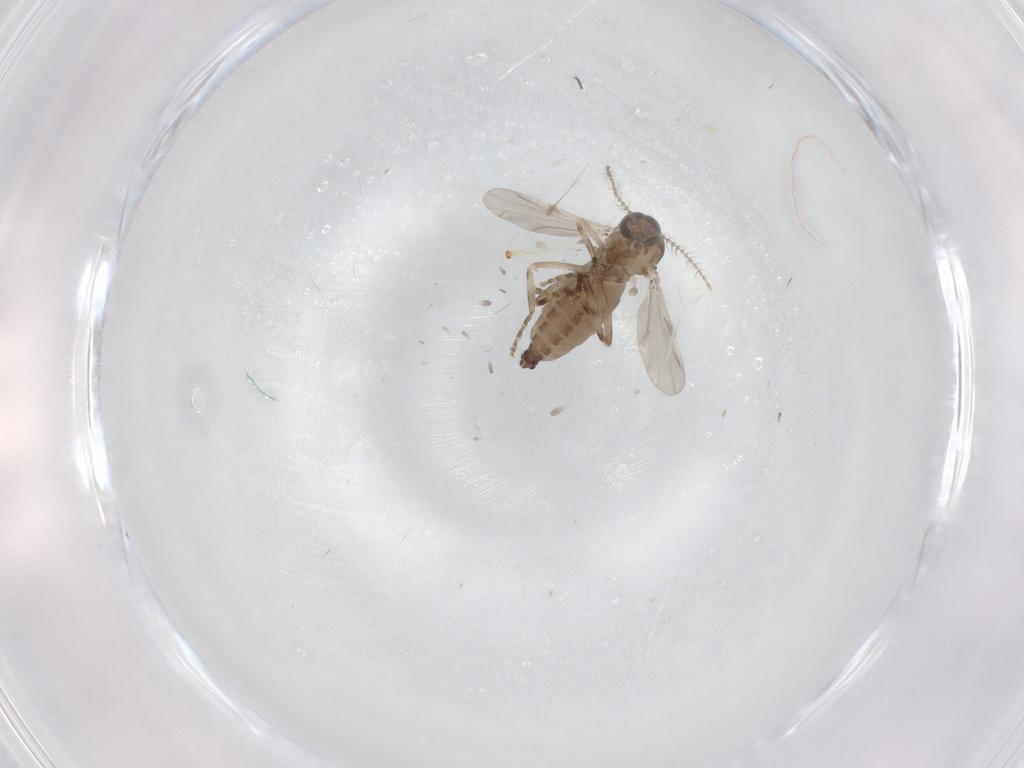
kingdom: Animalia
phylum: Arthropoda
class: Insecta
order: Diptera
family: Ceratopogonidae
